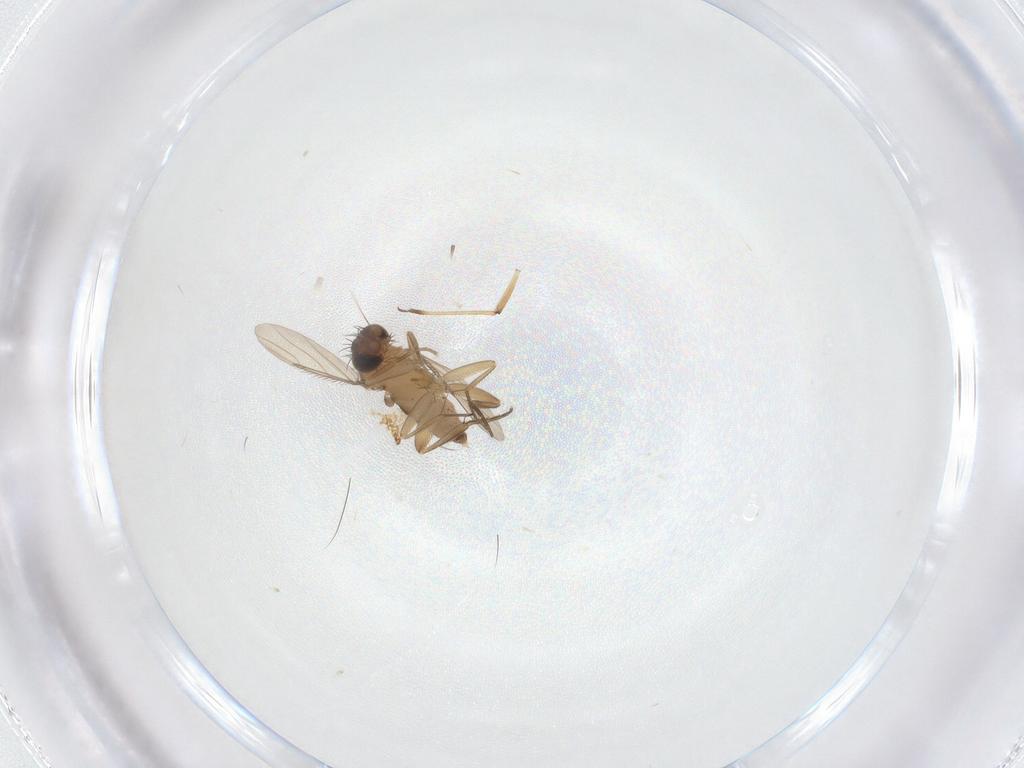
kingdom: Animalia
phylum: Arthropoda
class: Insecta
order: Diptera
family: Phoridae
